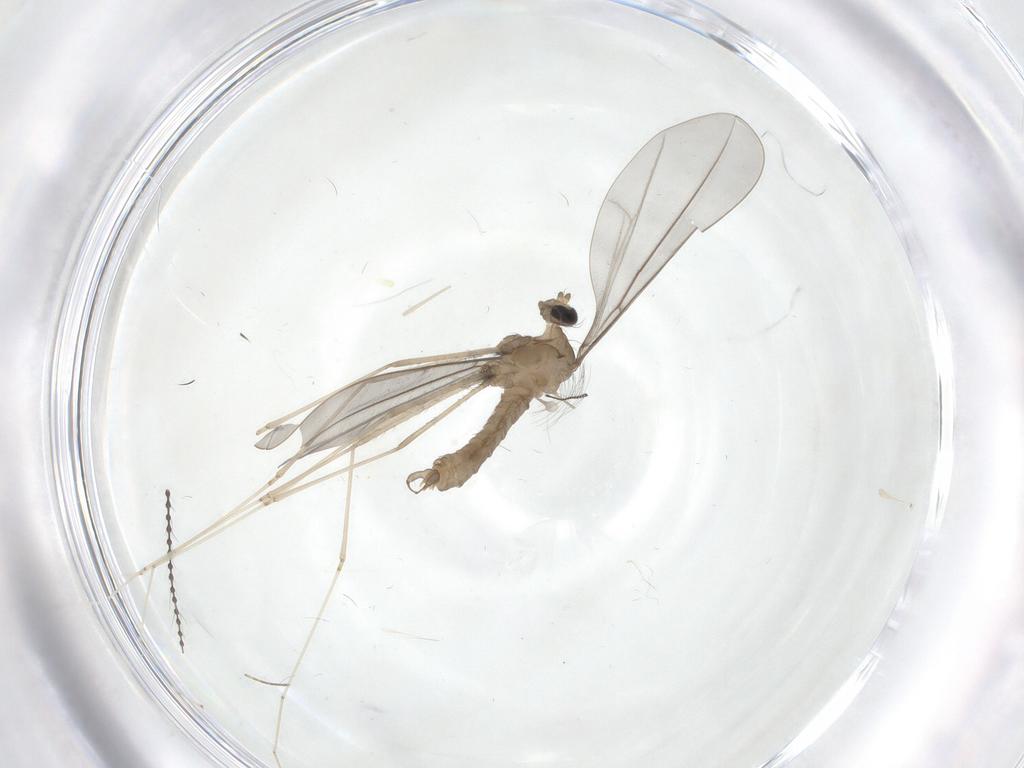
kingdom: Animalia
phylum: Arthropoda
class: Insecta
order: Diptera
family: Cecidomyiidae
